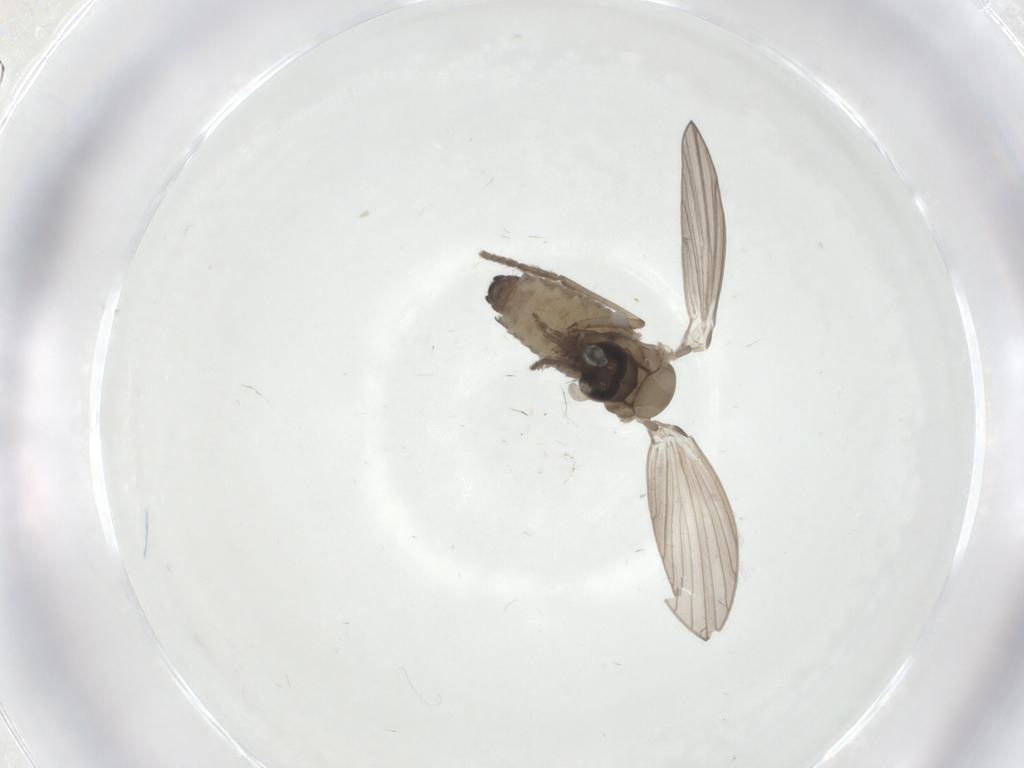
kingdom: Animalia
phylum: Arthropoda
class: Insecta
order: Diptera
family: Psychodidae
